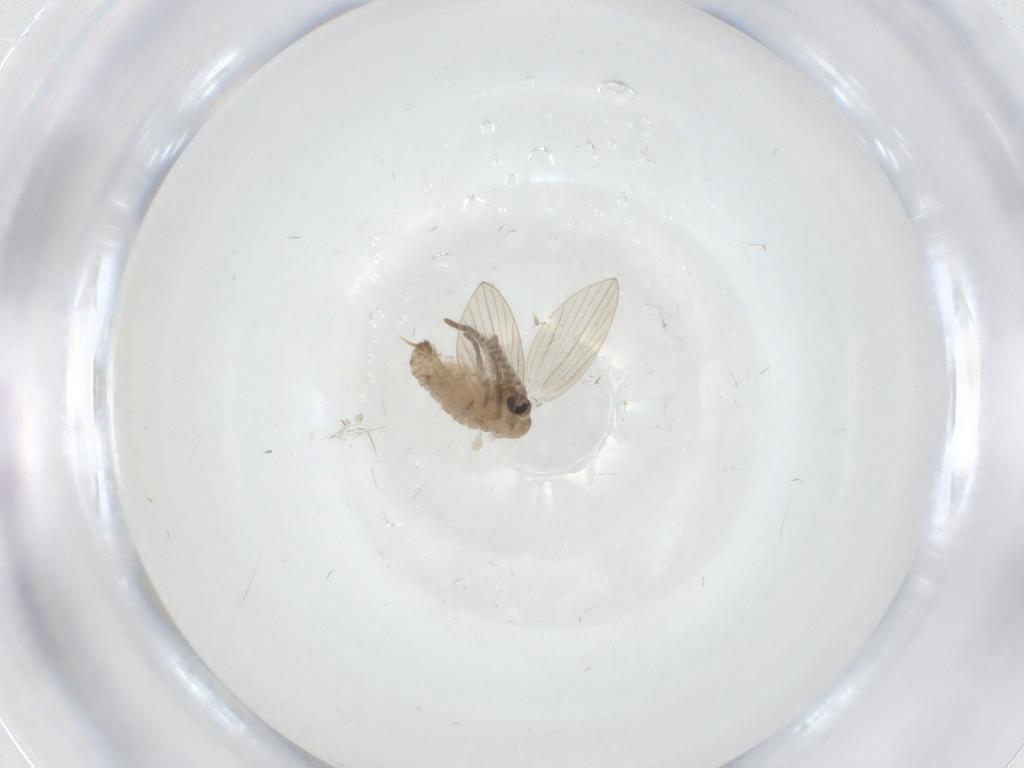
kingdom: Animalia
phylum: Arthropoda
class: Insecta
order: Diptera
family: Psychodidae
